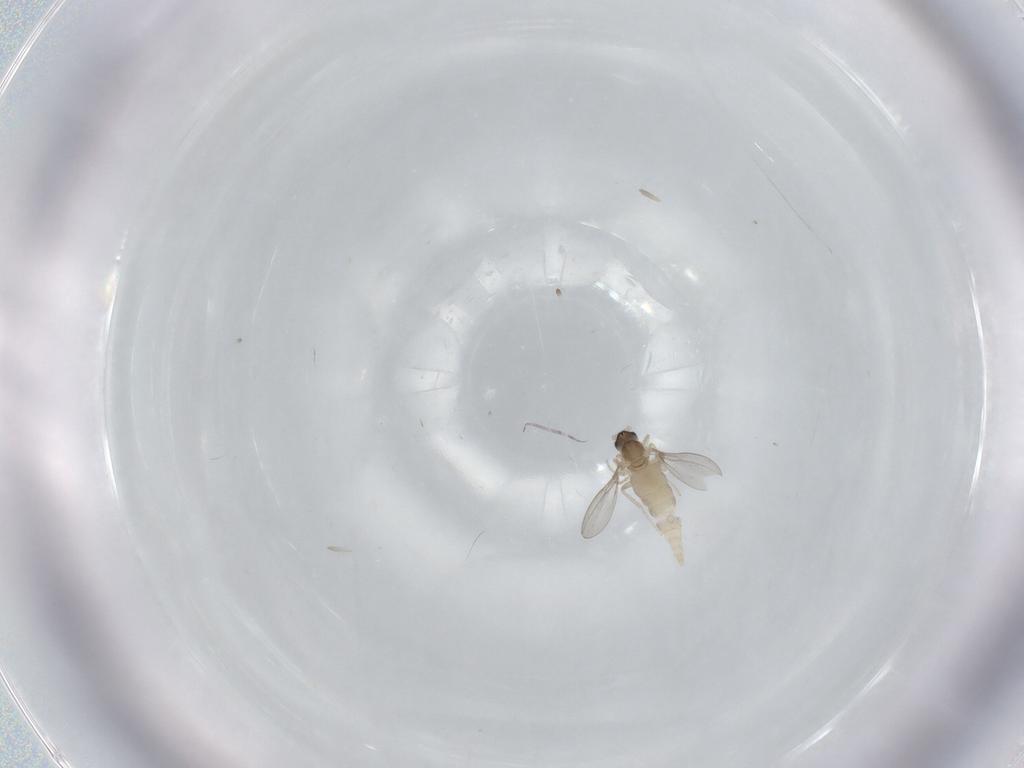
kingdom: Animalia
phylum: Arthropoda
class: Insecta
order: Diptera
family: Cecidomyiidae
